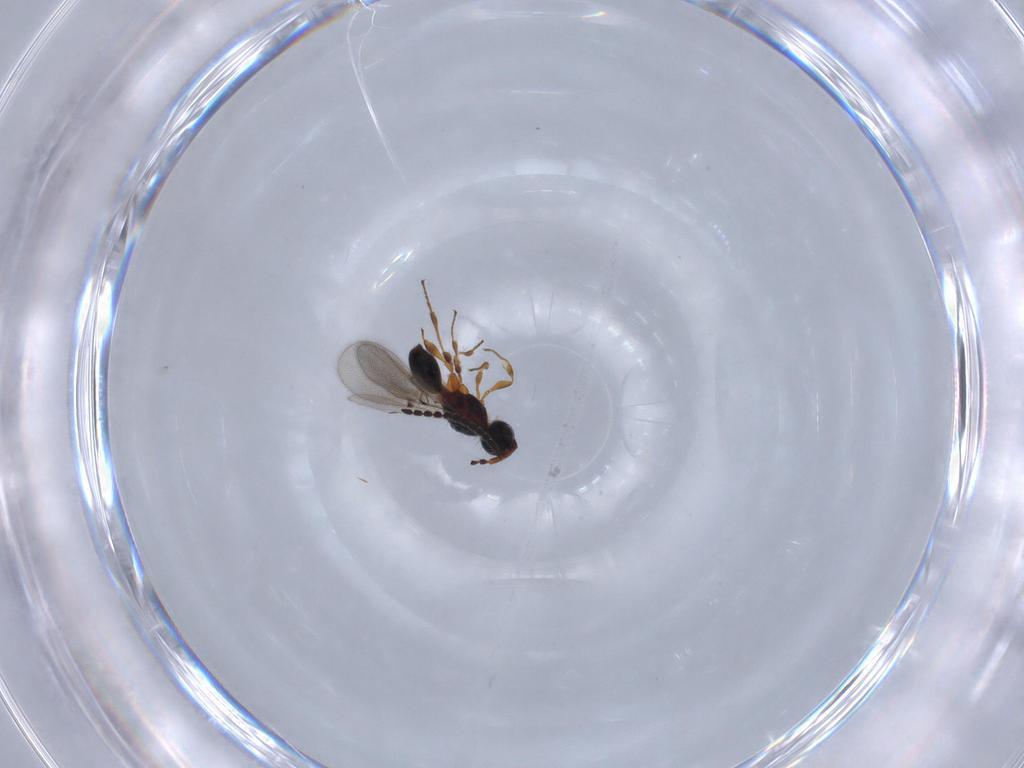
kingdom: Animalia
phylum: Arthropoda
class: Insecta
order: Hymenoptera
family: Diapriidae
